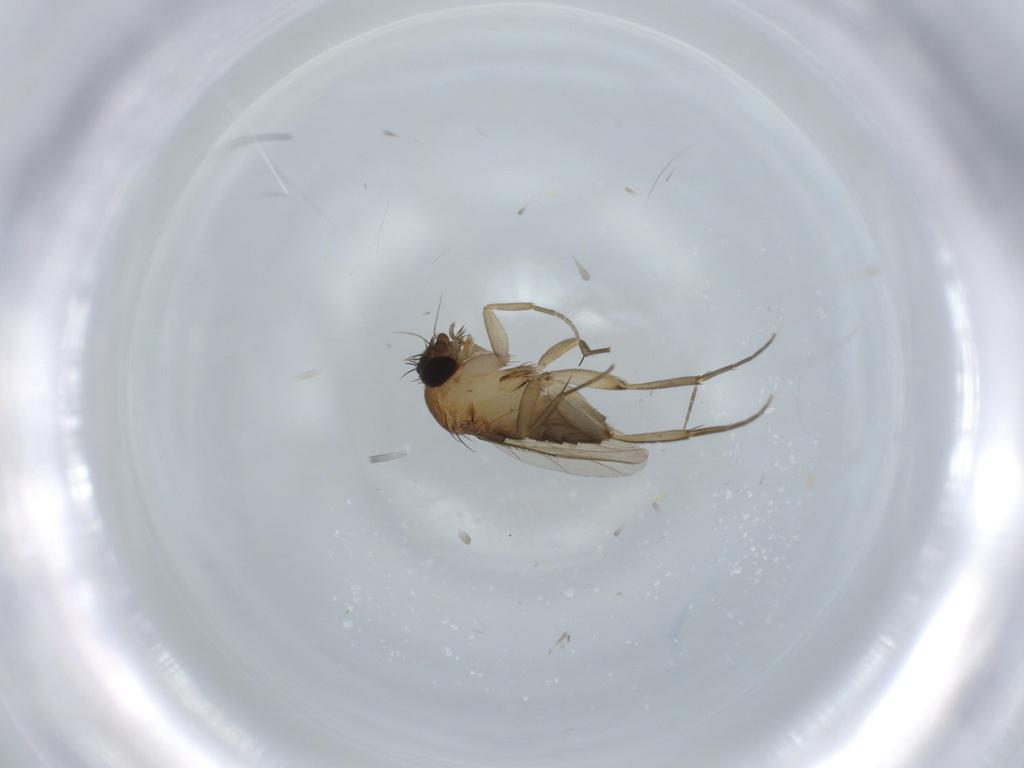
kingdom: Animalia
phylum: Arthropoda
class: Insecta
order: Diptera
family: Phoridae
